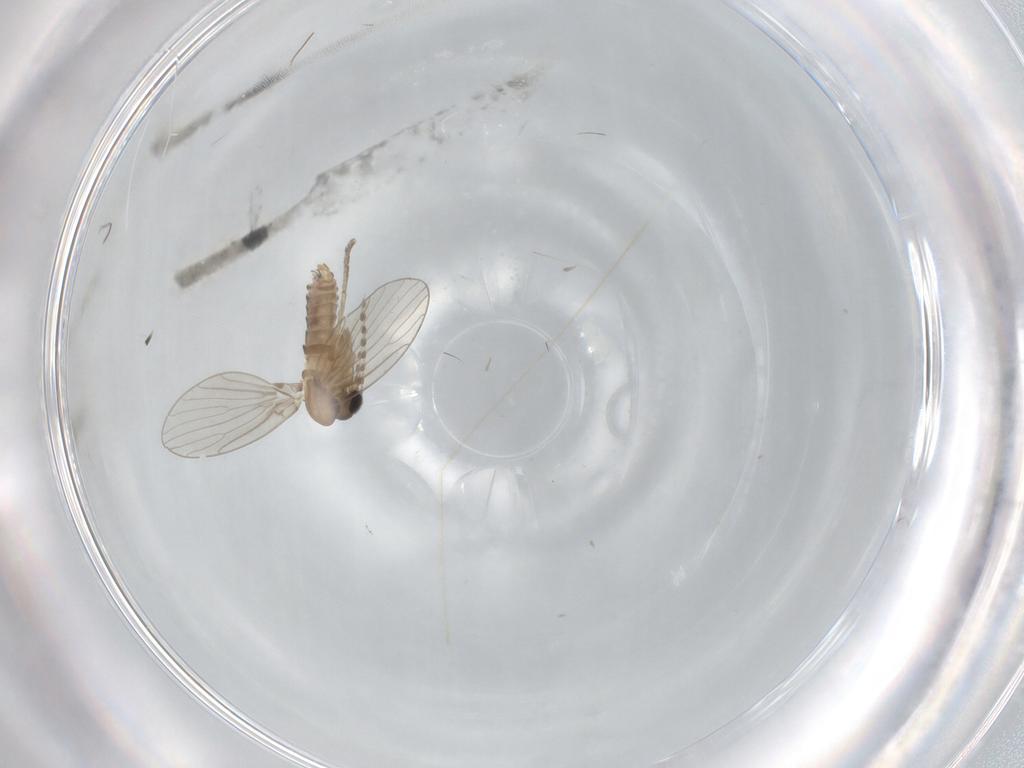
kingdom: Animalia
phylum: Arthropoda
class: Insecta
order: Diptera
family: Psychodidae
